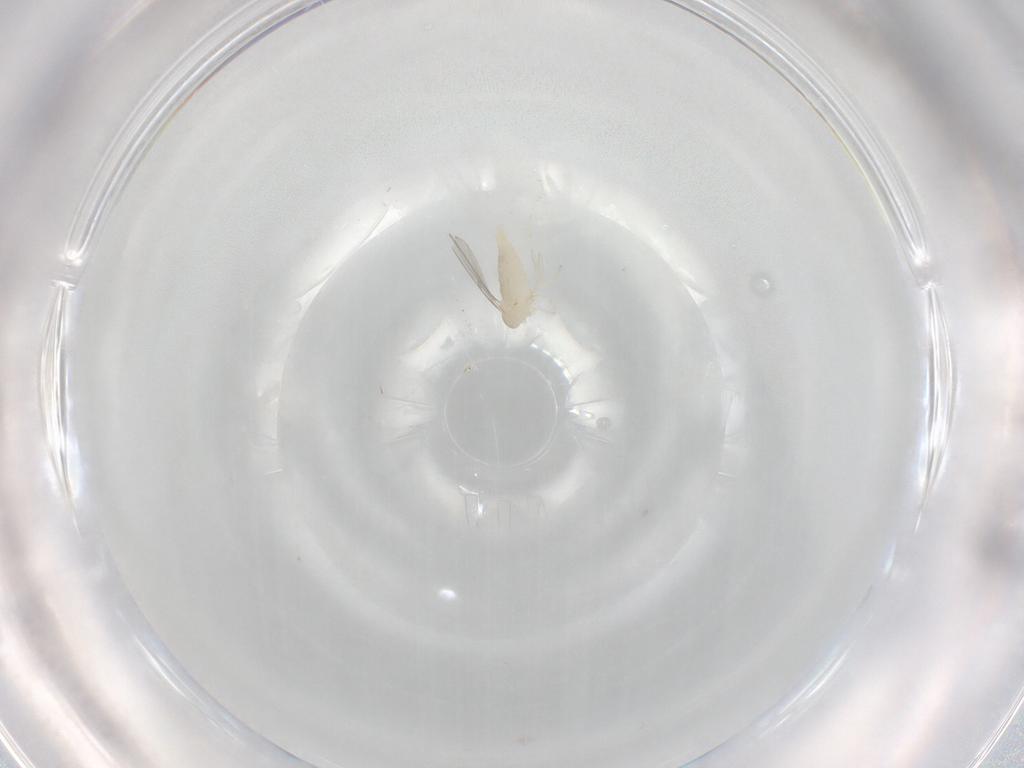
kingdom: Animalia
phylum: Arthropoda
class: Insecta
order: Diptera
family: Cecidomyiidae
